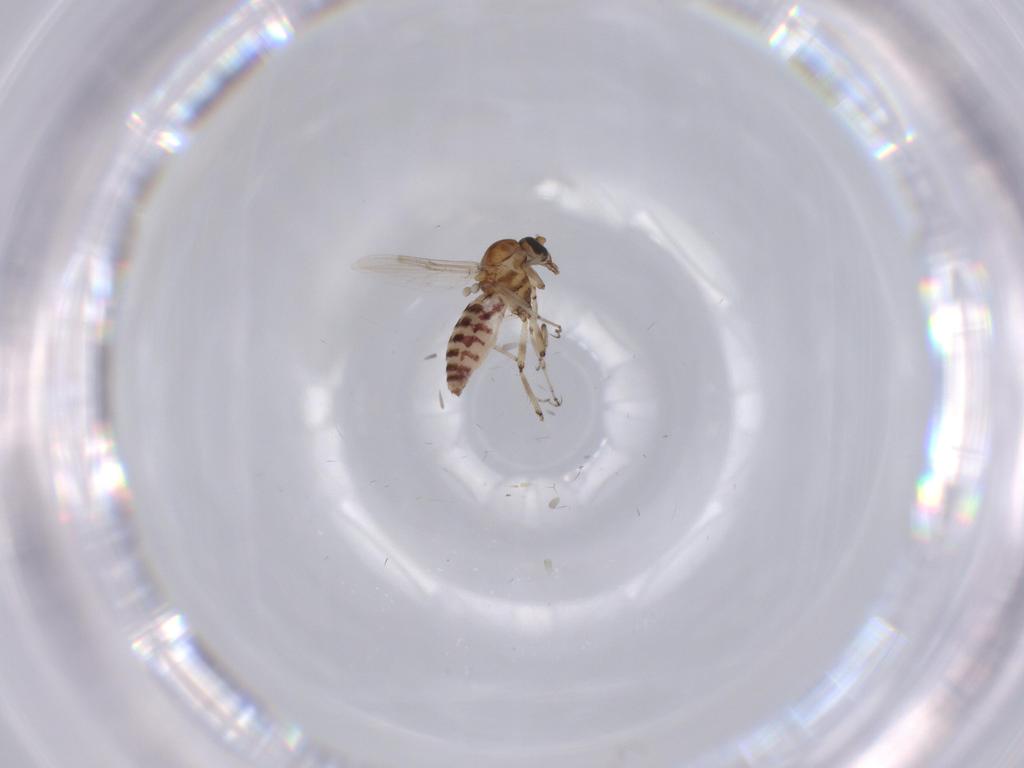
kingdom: Animalia
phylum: Arthropoda
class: Insecta
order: Diptera
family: Ceratopogonidae
